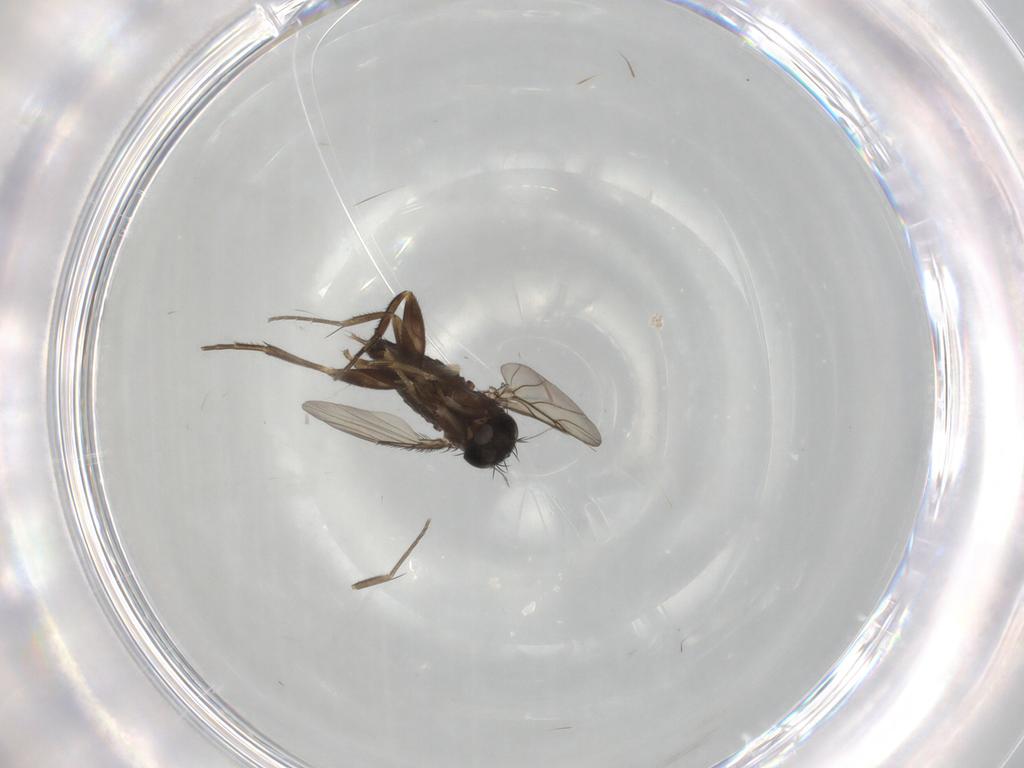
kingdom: Animalia
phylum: Arthropoda
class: Insecta
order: Diptera
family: Phoridae
